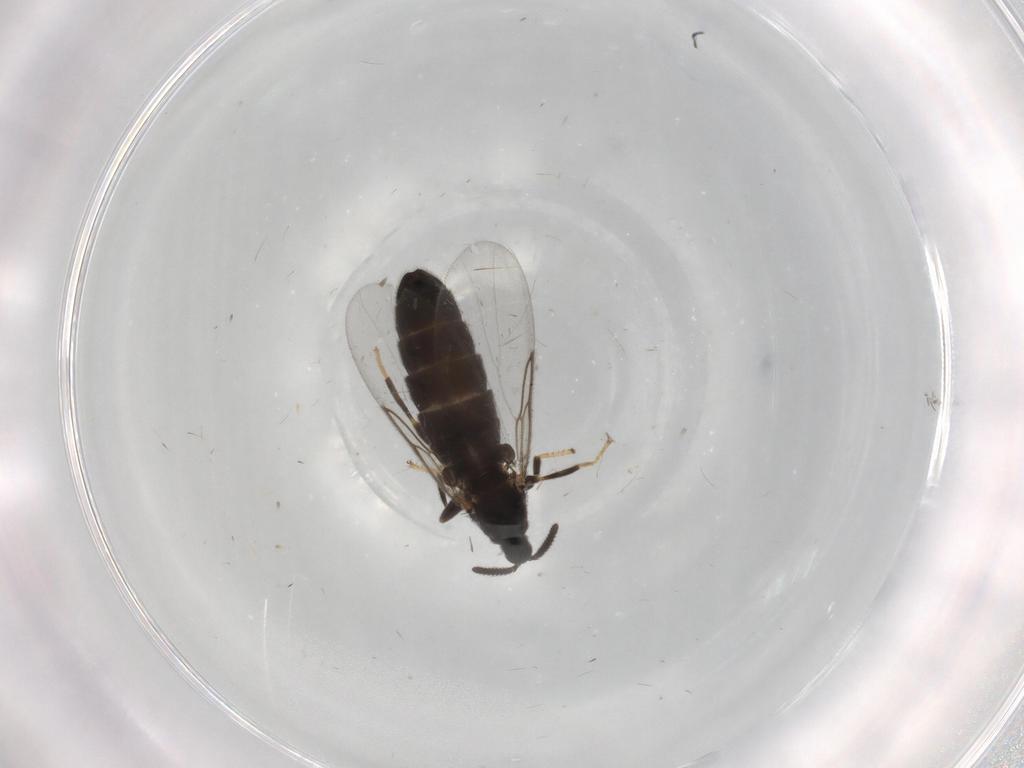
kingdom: Animalia
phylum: Arthropoda
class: Insecta
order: Diptera
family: Scatopsidae
